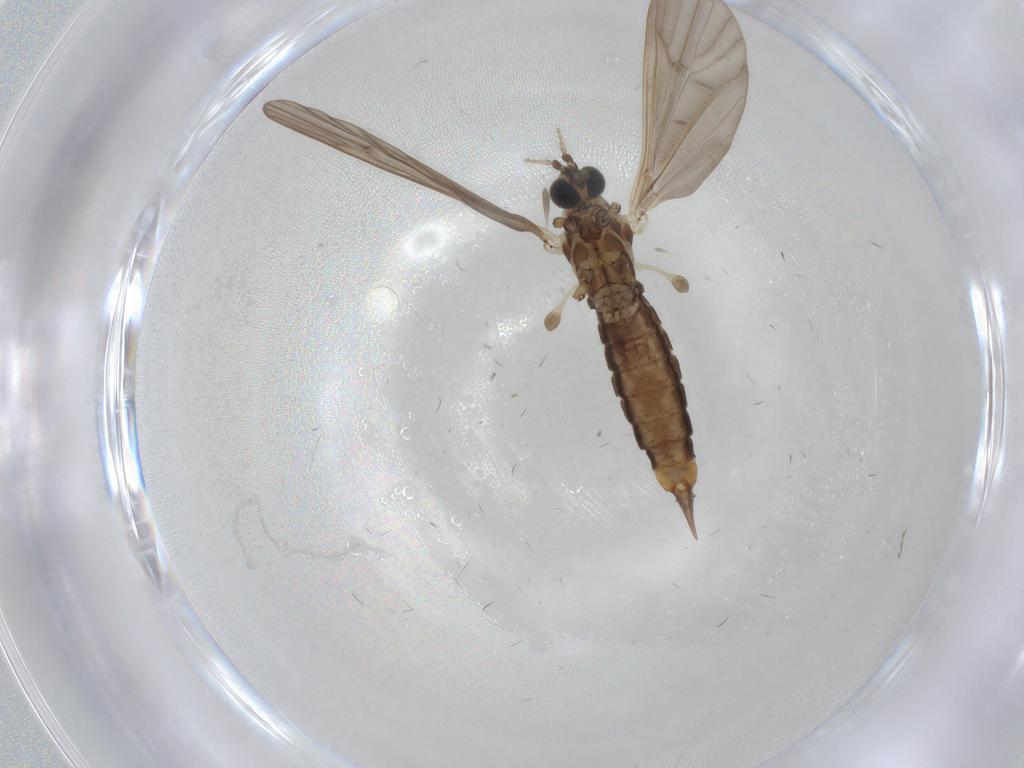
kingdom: Animalia
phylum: Arthropoda
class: Insecta
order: Diptera
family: Limoniidae
